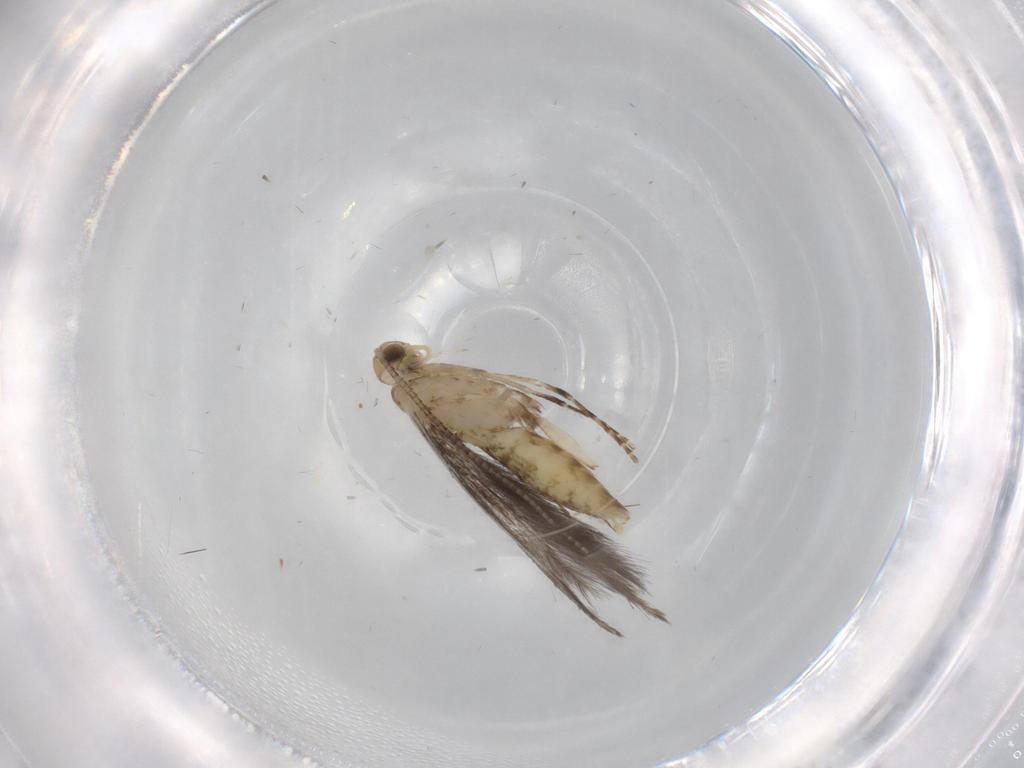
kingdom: Animalia
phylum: Arthropoda
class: Insecta
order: Lepidoptera
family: Gracillariidae
